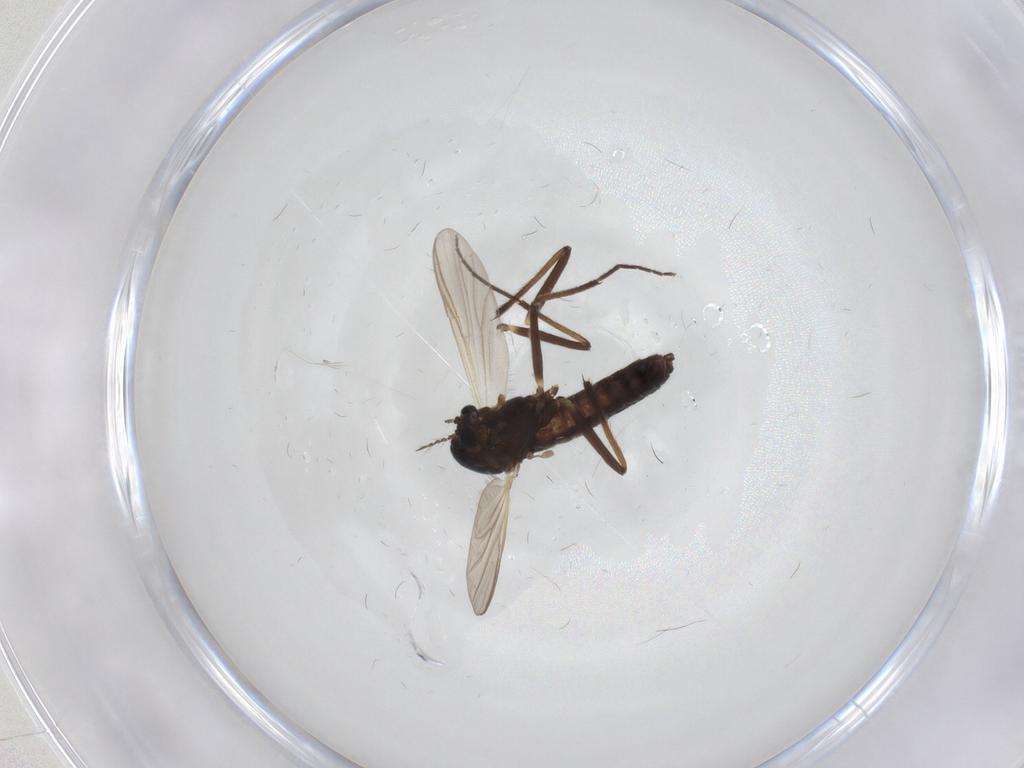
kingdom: Animalia
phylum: Arthropoda
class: Insecta
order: Diptera
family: Chironomidae
